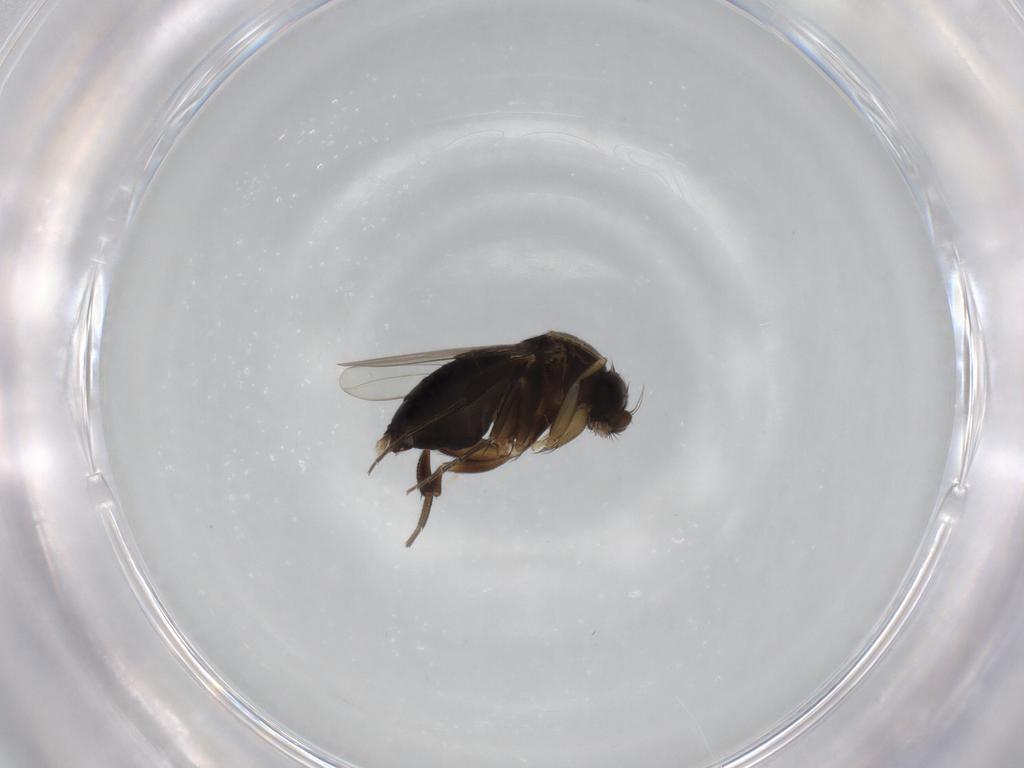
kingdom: Animalia
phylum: Arthropoda
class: Insecta
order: Diptera
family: Phoridae
